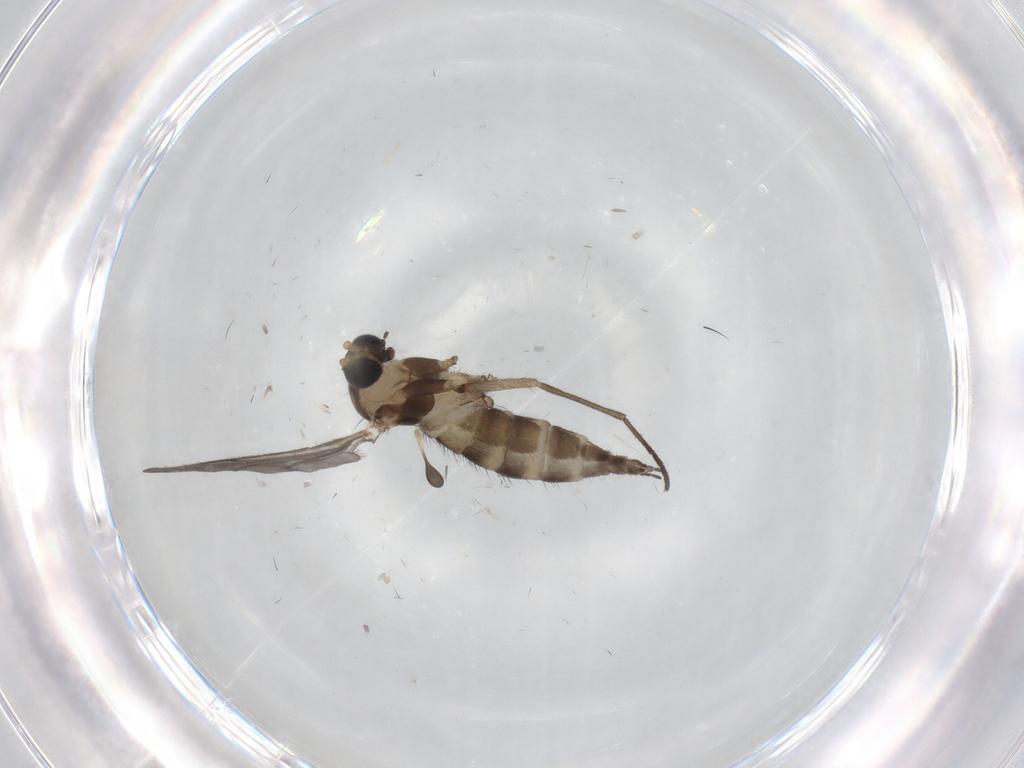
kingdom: Animalia
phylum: Arthropoda
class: Insecta
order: Diptera
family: Sciaridae
